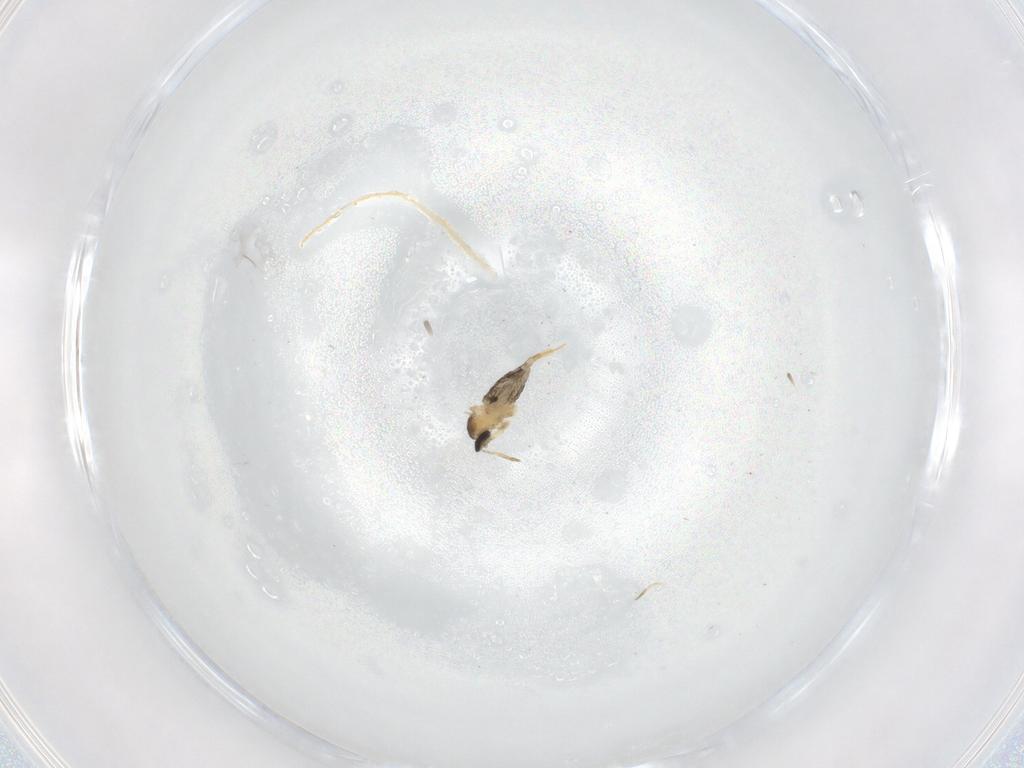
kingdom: Animalia
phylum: Arthropoda
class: Insecta
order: Diptera
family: Cecidomyiidae
